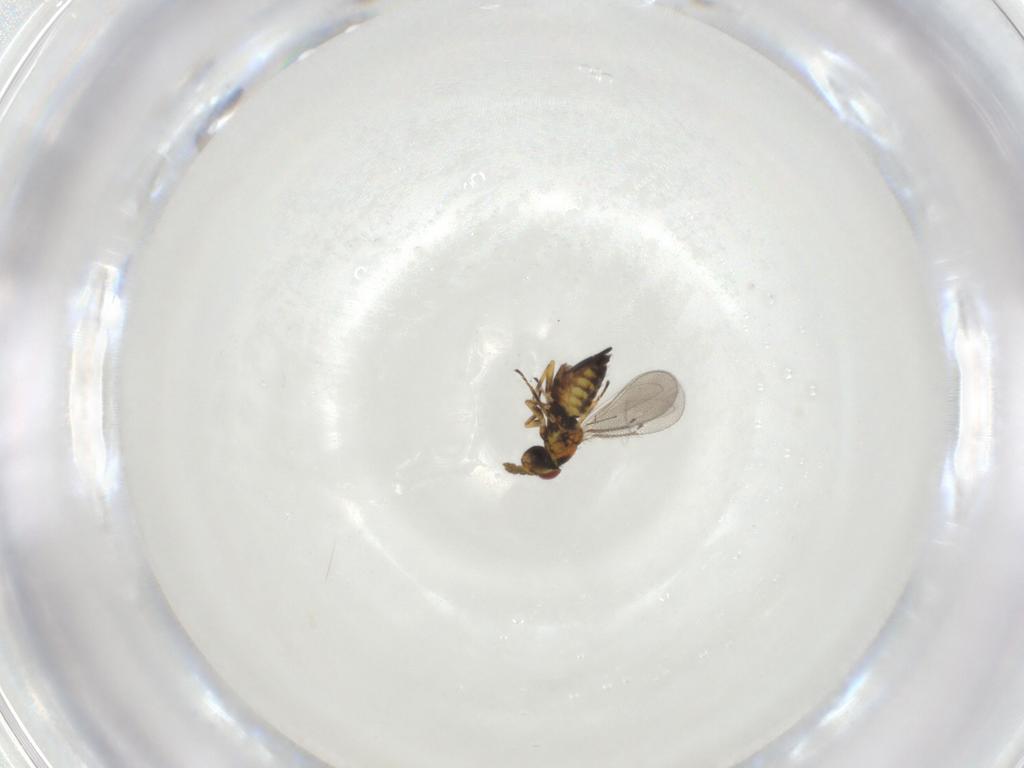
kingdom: Animalia
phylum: Arthropoda
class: Insecta
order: Hymenoptera
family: Eulophidae
